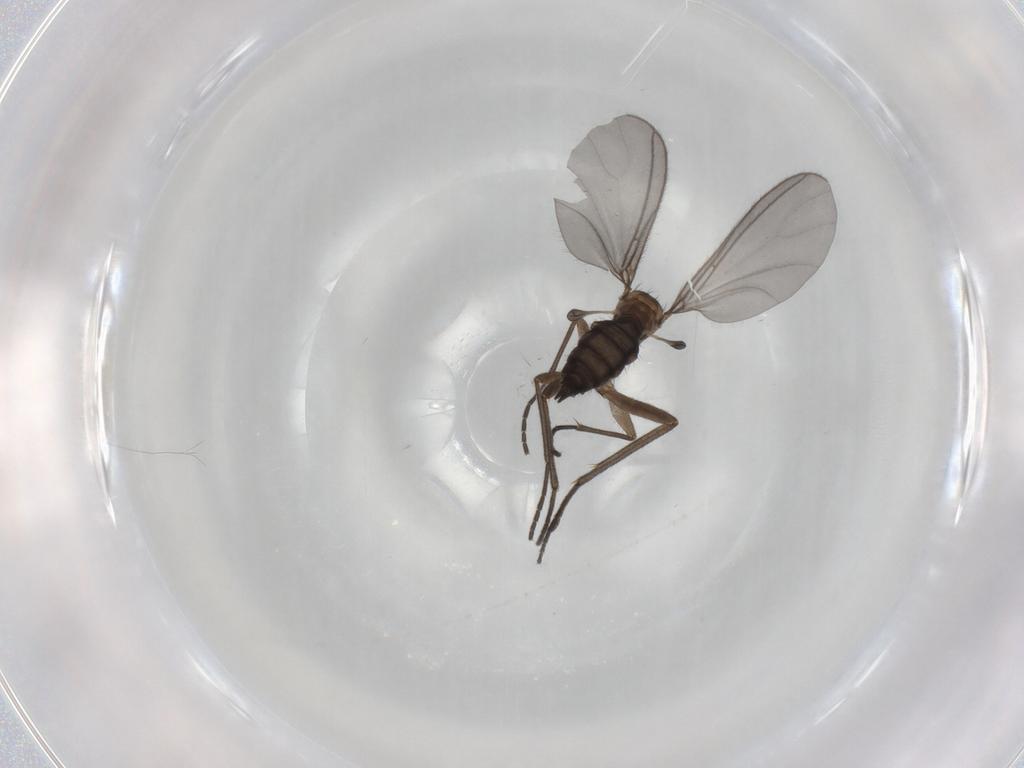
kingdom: Animalia
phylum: Arthropoda
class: Insecta
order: Diptera
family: Sciaridae
